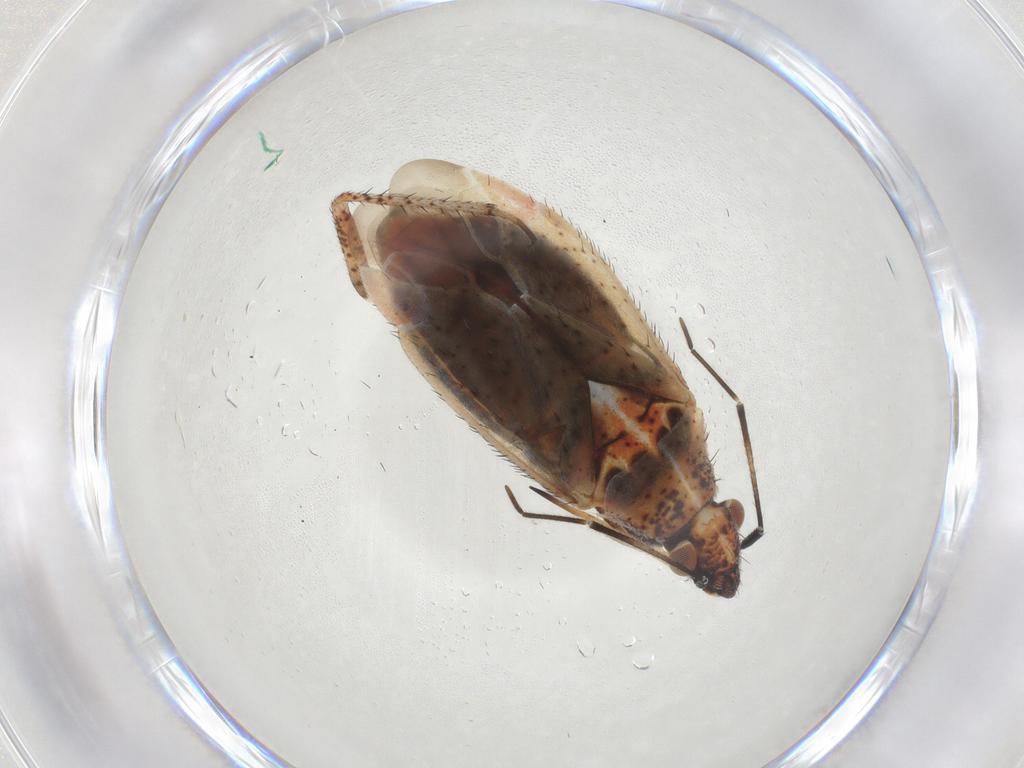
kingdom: Animalia
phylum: Arthropoda
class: Insecta
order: Hemiptera
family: Miridae
